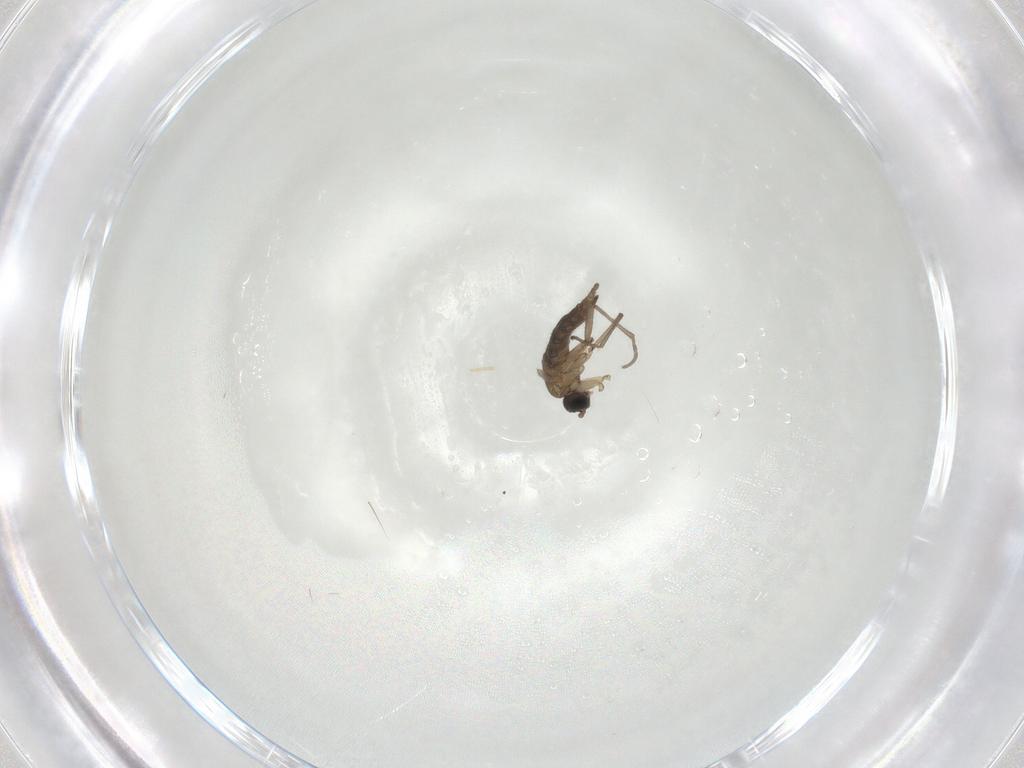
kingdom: Animalia
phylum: Arthropoda
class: Insecta
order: Diptera
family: Sciaridae
